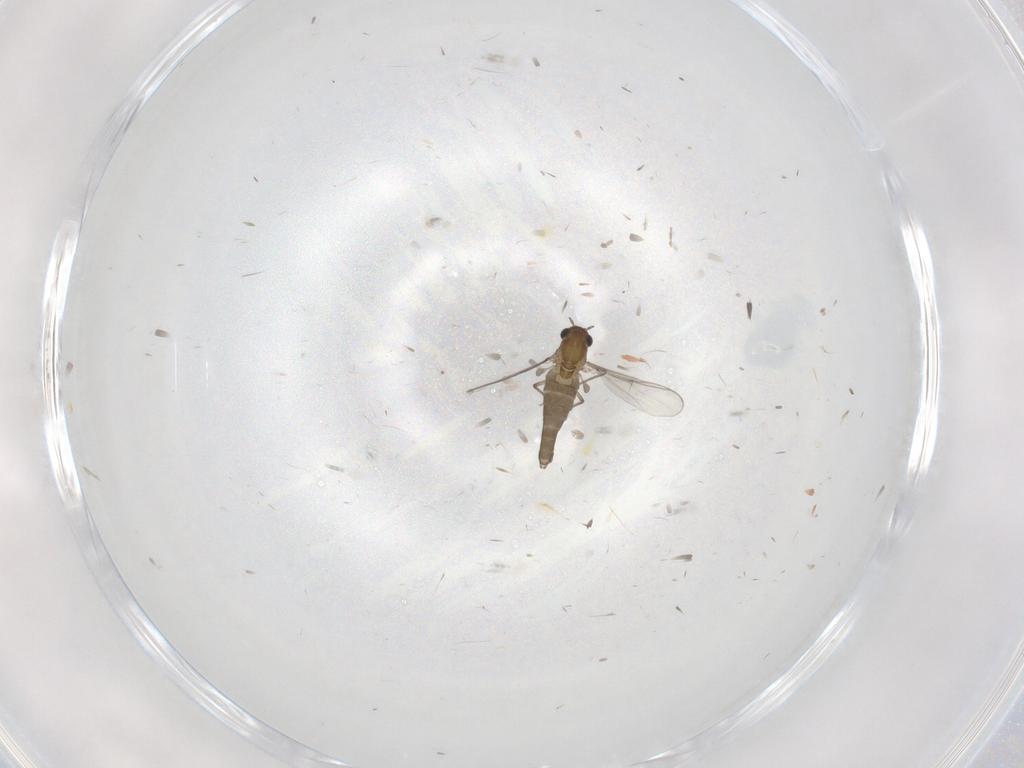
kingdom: Animalia
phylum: Arthropoda
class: Insecta
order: Diptera
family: Chironomidae
